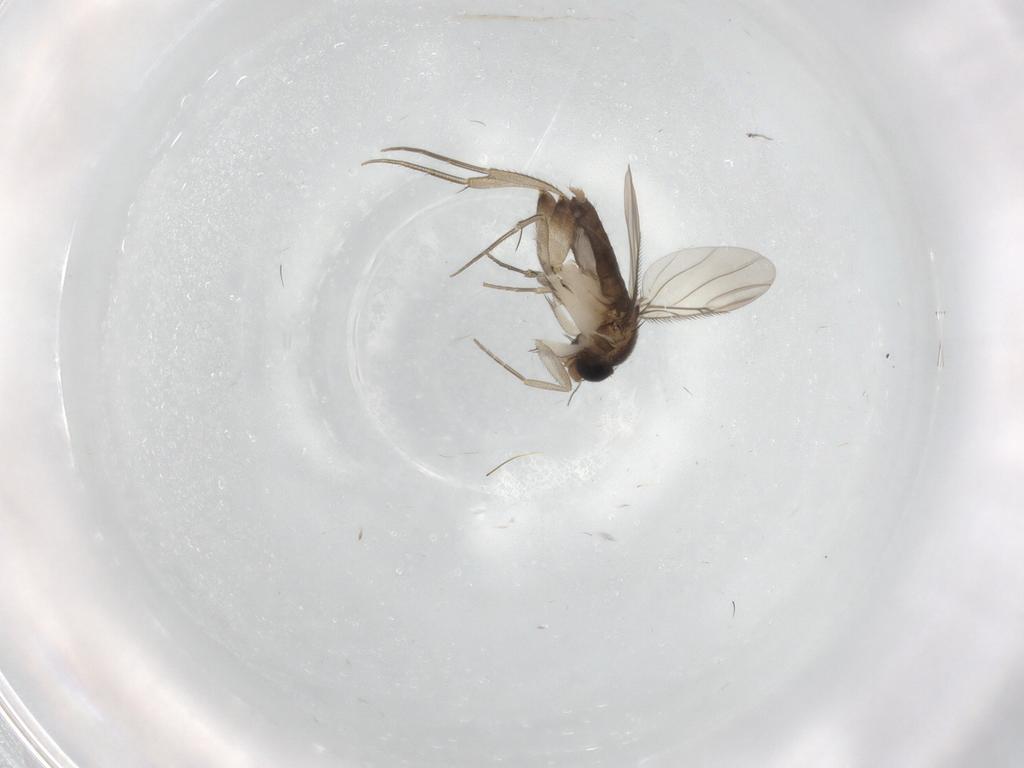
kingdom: Animalia
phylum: Arthropoda
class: Insecta
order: Diptera
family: Phoridae
